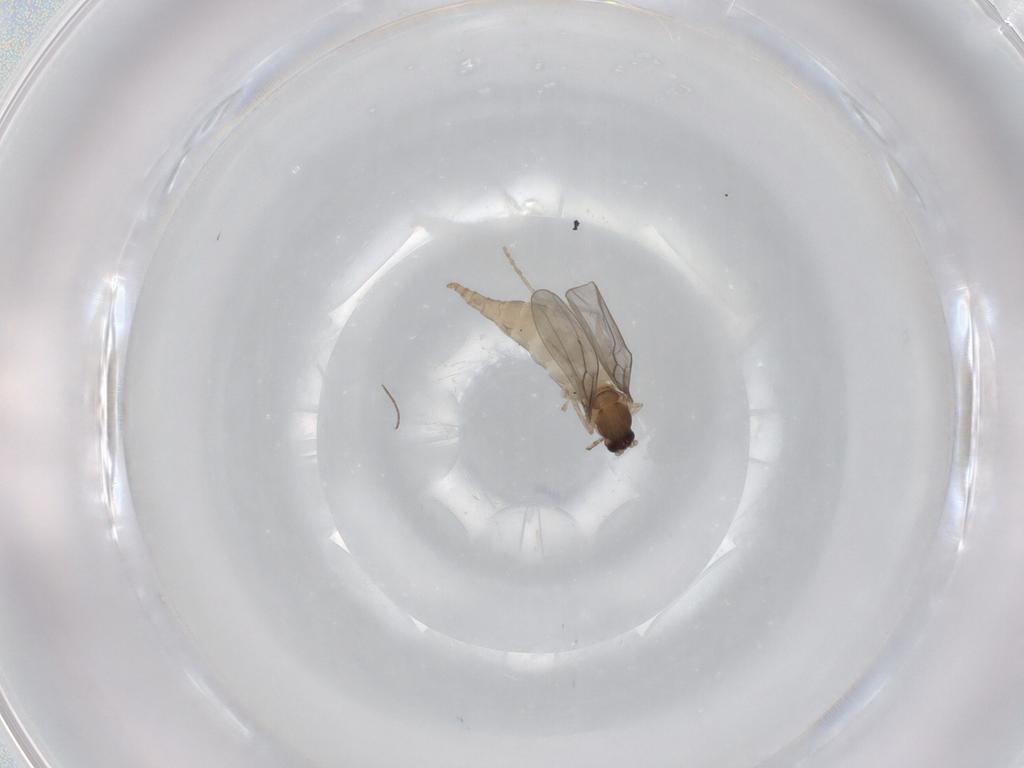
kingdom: Animalia
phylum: Arthropoda
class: Insecta
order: Diptera
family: Cecidomyiidae
